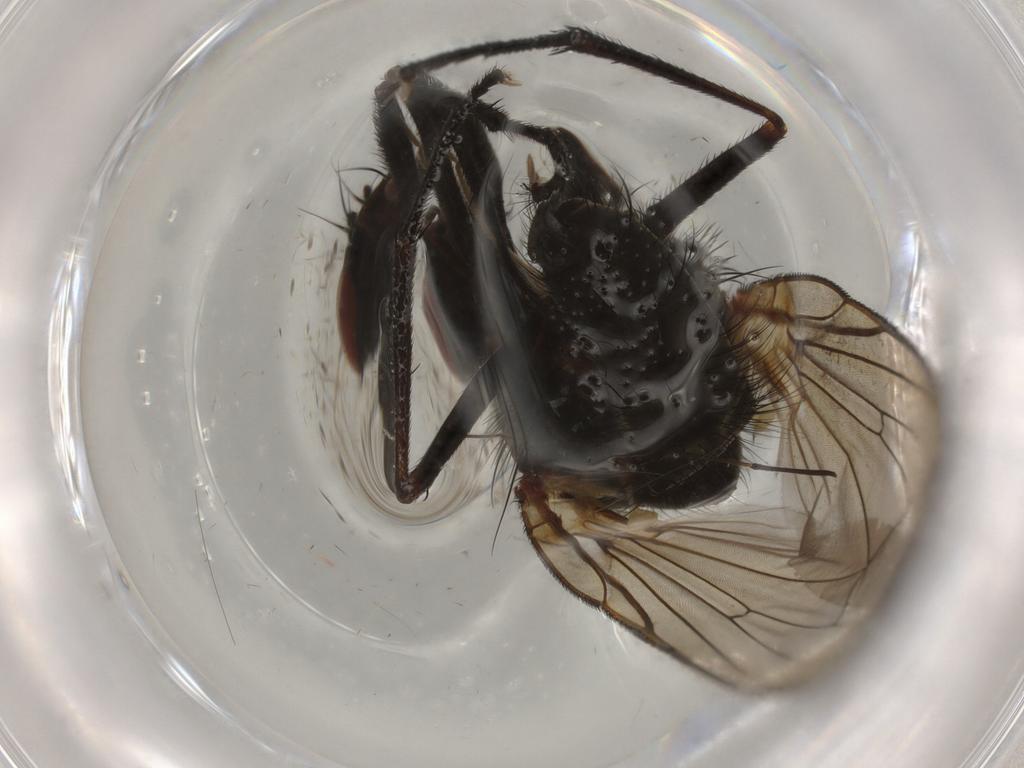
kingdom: Animalia
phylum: Arthropoda
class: Insecta
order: Diptera
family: Anthomyiidae
